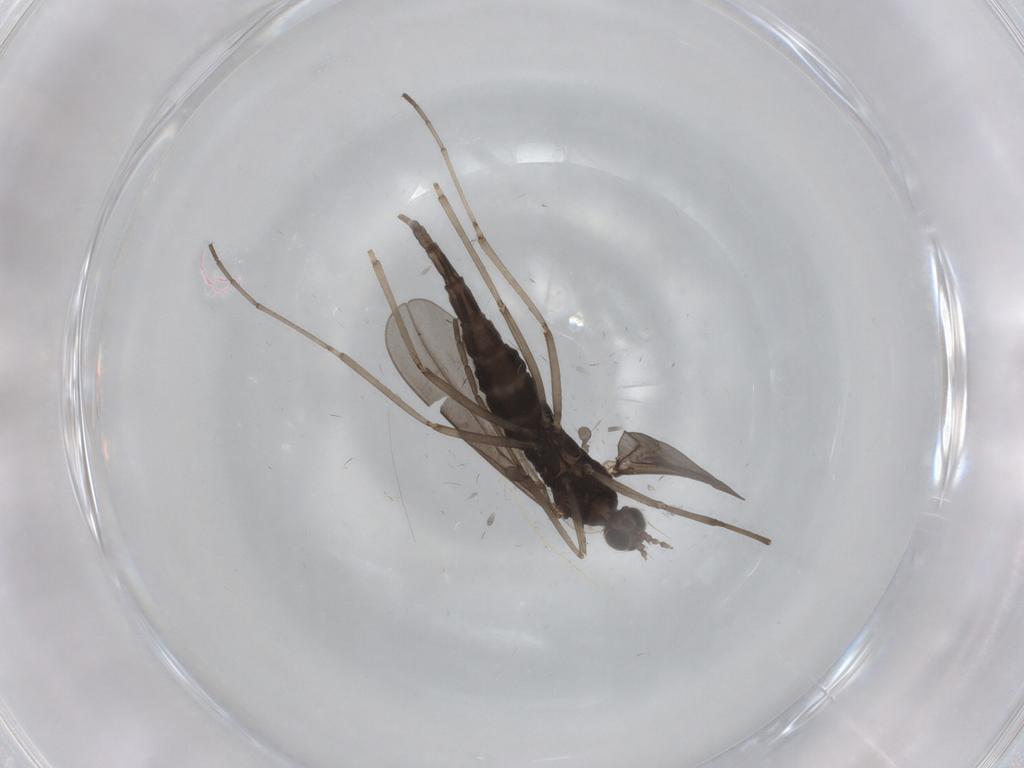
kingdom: Animalia
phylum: Arthropoda
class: Insecta
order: Diptera
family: Cecidomyiidae
